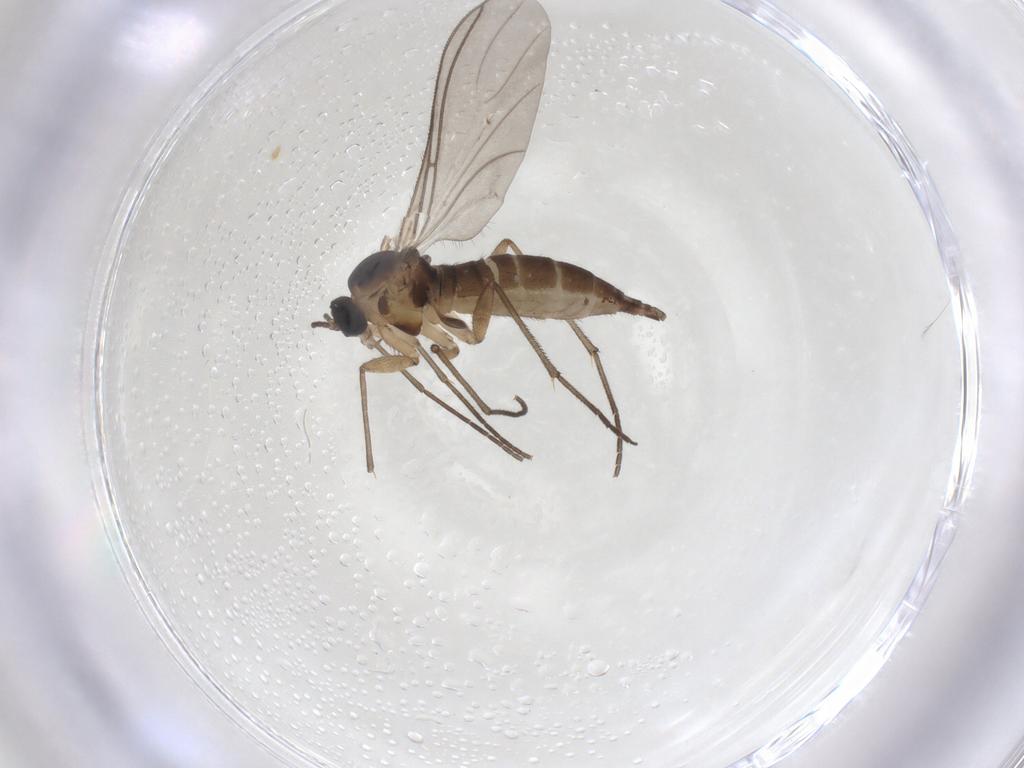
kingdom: Animalia
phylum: Arthropoda
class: Insecta
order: Diptera
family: Sciaridae
